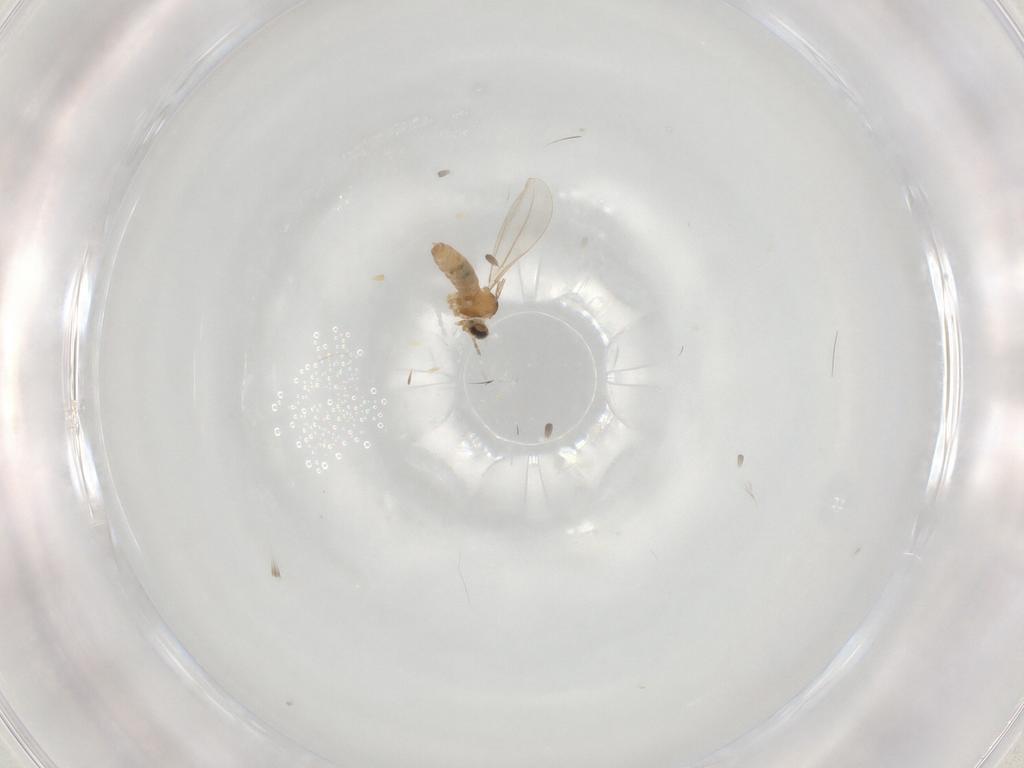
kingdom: Animalia
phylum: Arthropoda
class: Insecta
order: Diptera
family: Cecidomyiidae
